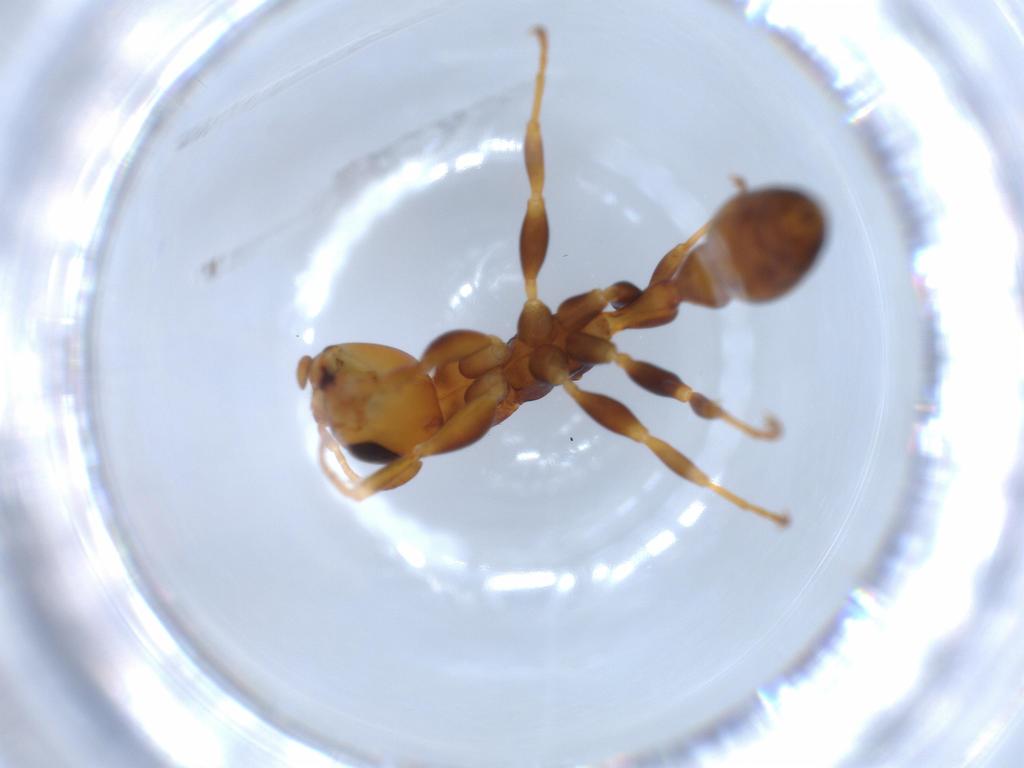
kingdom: Animalia
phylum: Arthropoda
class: Insecta
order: Hymenoptera
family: Formicidae
